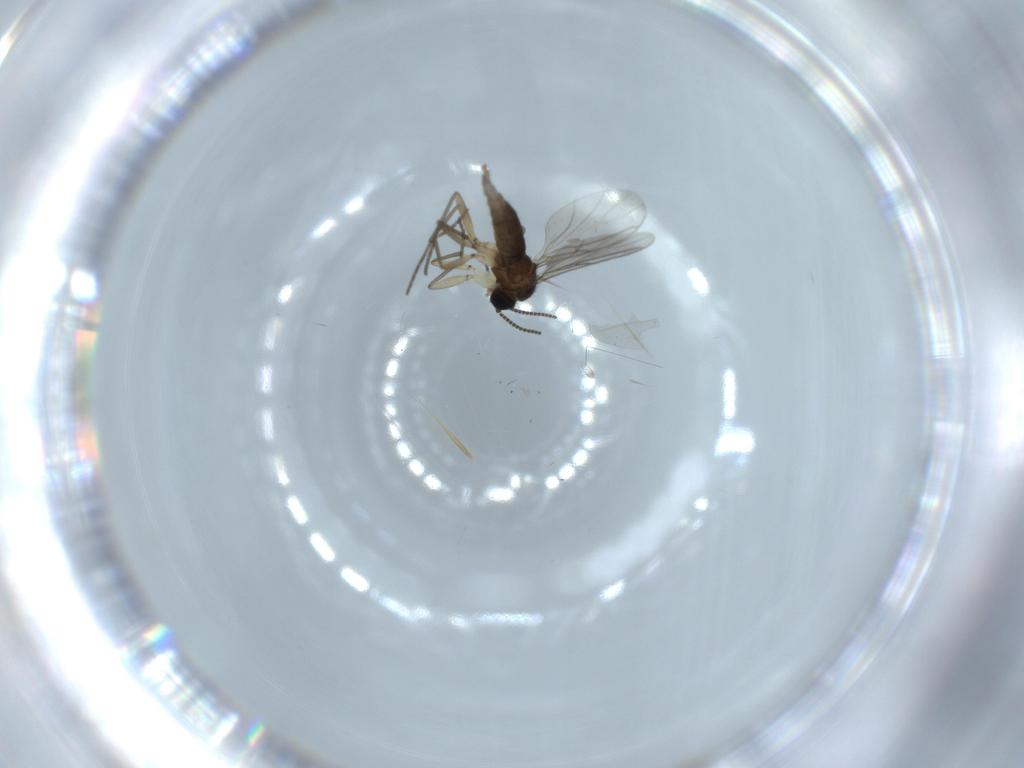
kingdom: Animalia
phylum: Arthropoda
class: Insecta
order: Diptera
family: Sciaridae
